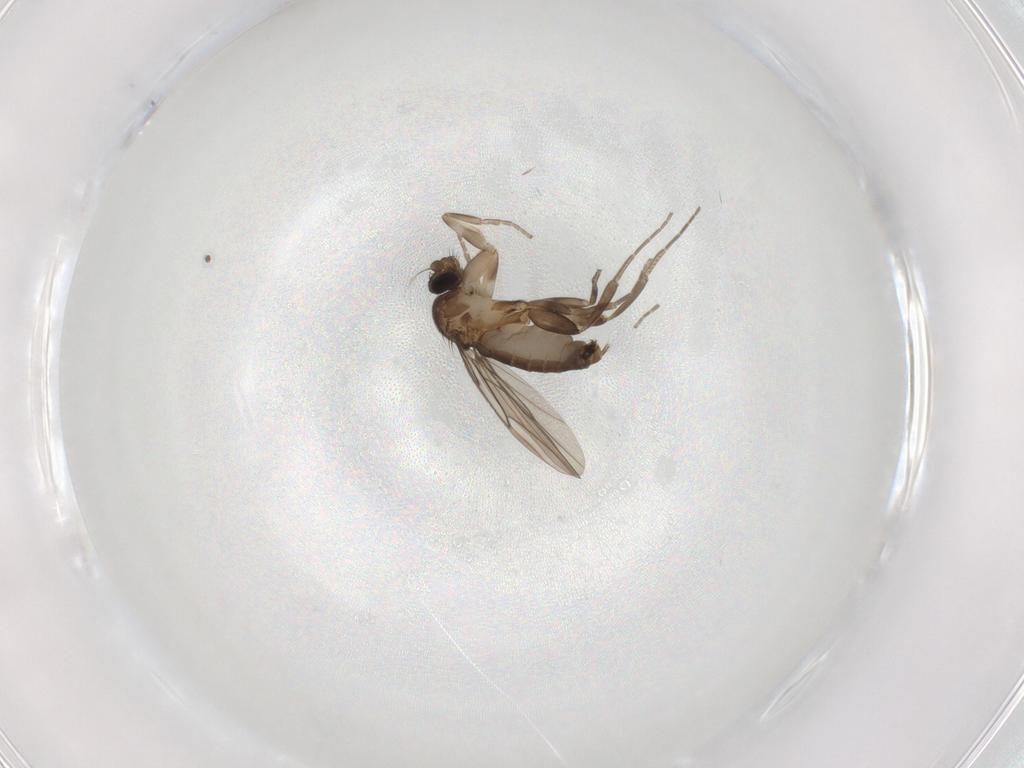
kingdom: Animalia
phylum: Arthropoda
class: Insecta
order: Diptera
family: Phoridae
